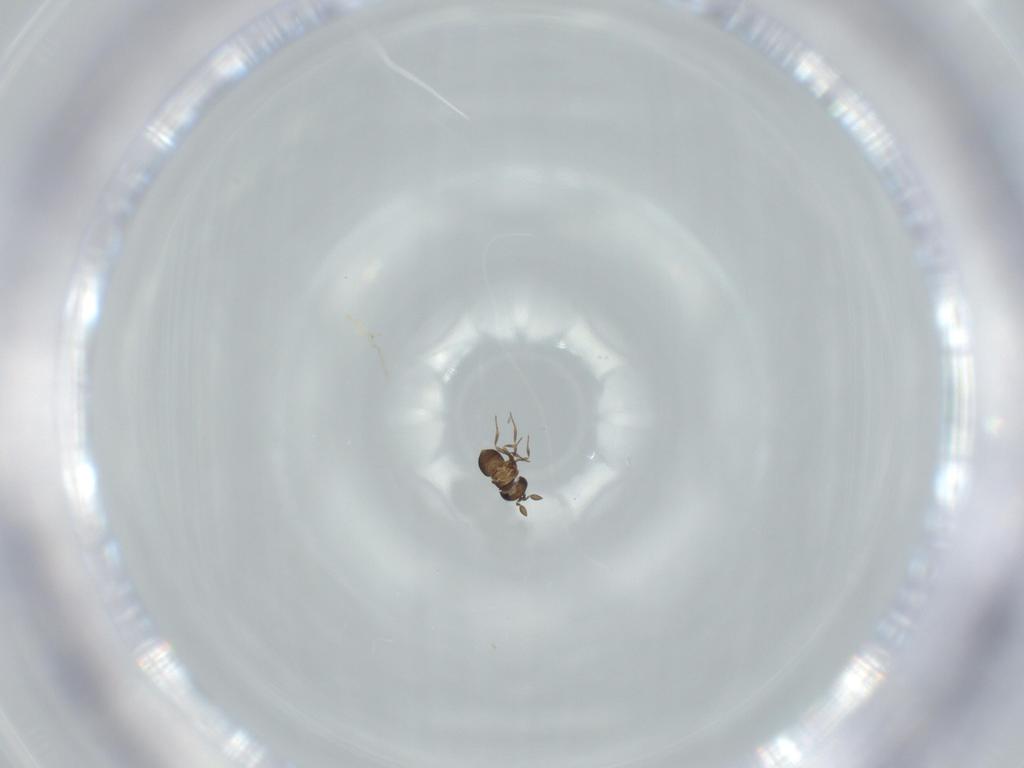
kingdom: Animalia
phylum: Arthropoda
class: Insecta
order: Hymenoptera
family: Scelionidae
